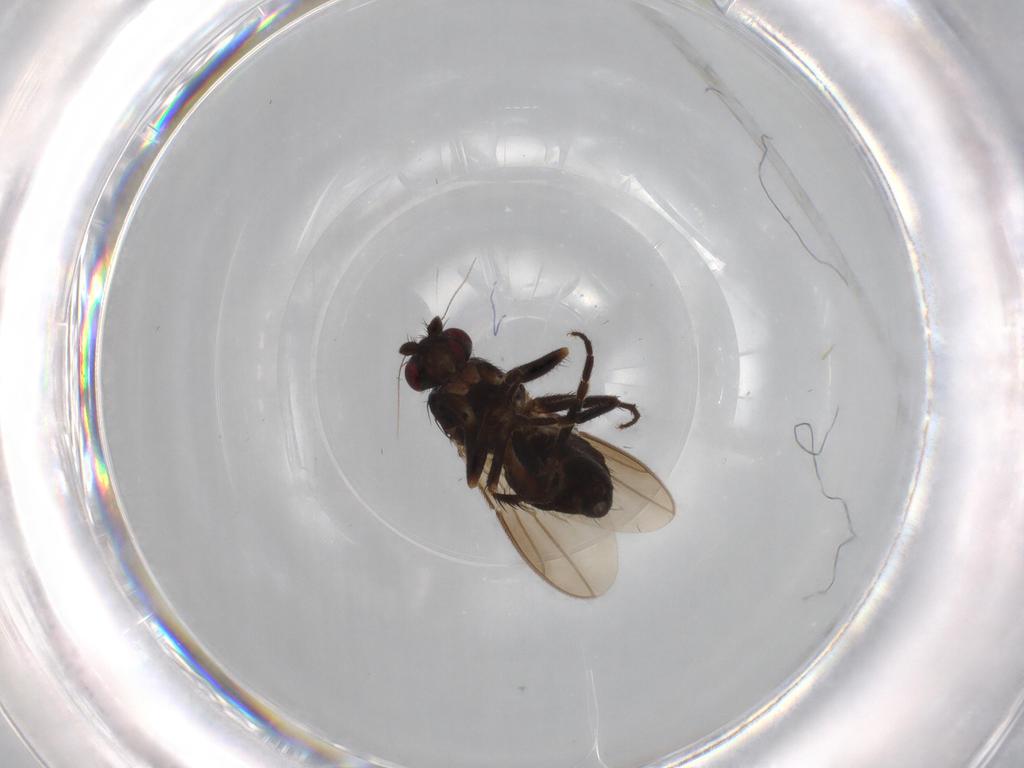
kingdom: Animalia
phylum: Arthropoda
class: Insecta
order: Diptera
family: Sphaeroceridae
